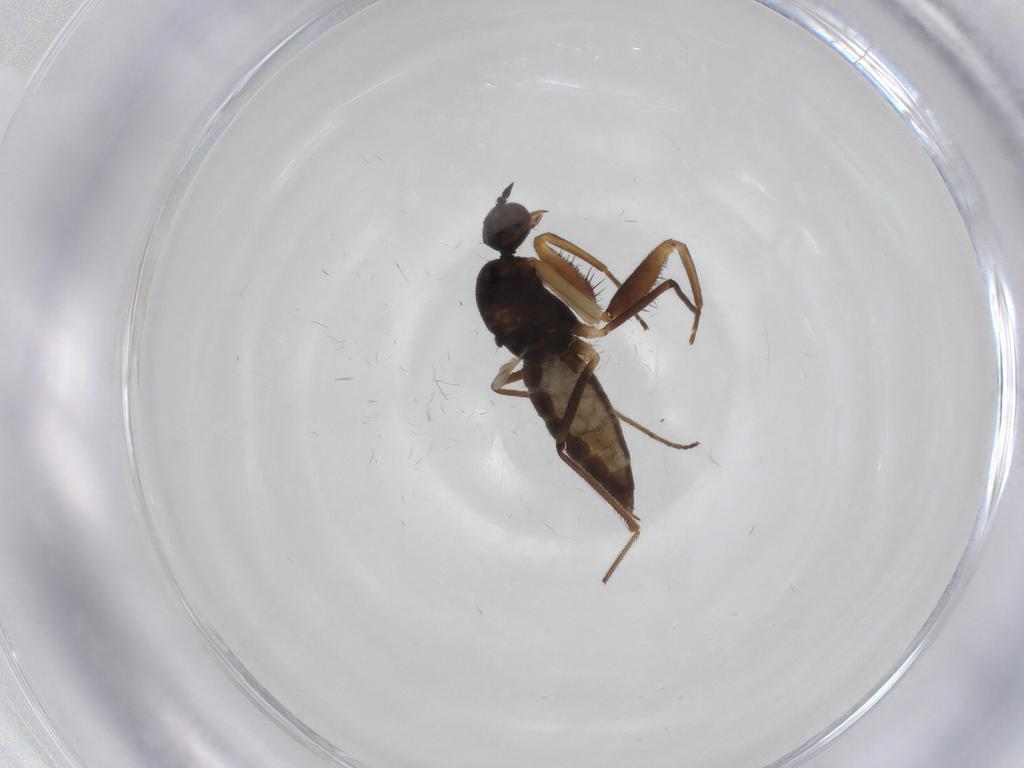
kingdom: Animalia
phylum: Arthropoda
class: Insecta
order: Diptera
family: Empididae
